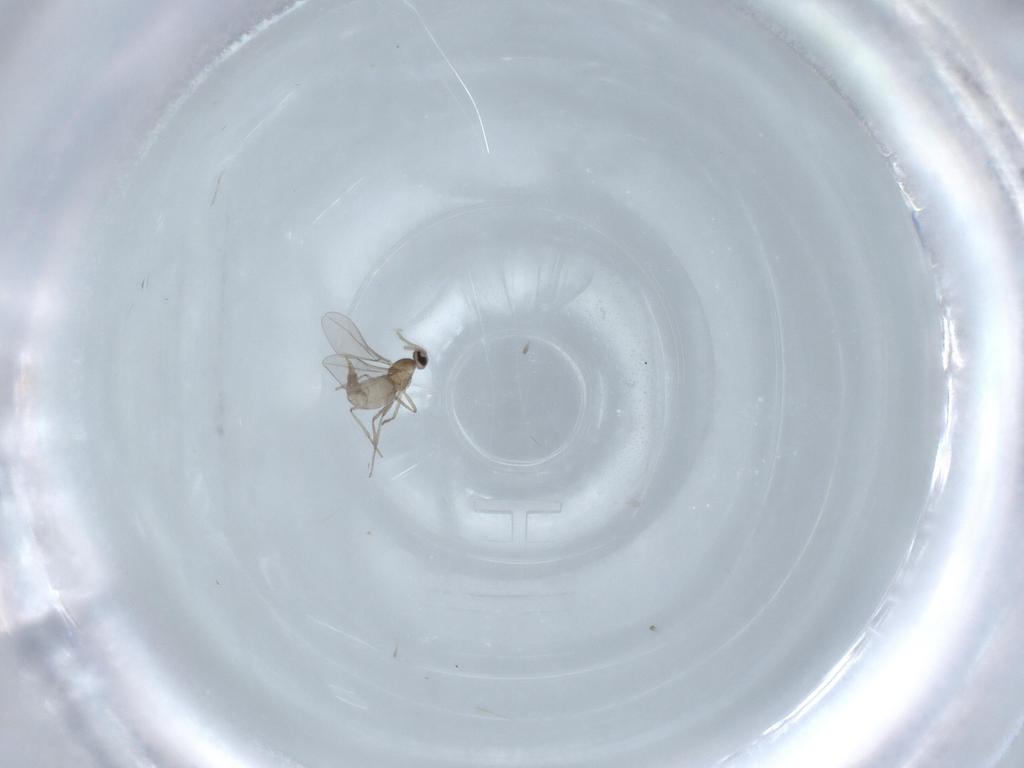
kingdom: Animalia
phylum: Arthropoda
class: Insecta
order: Diptera
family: Cecidomyiidae
